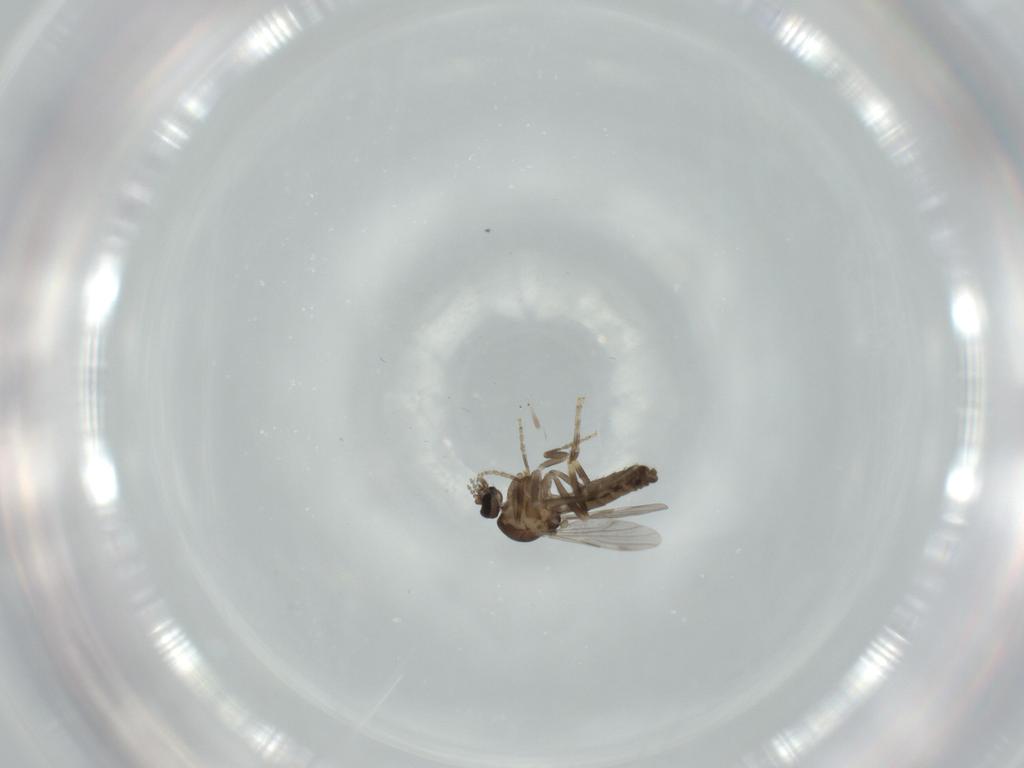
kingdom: Animalia
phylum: Arthropoda
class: Insecta
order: Diptera
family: Ceratopogonidae
